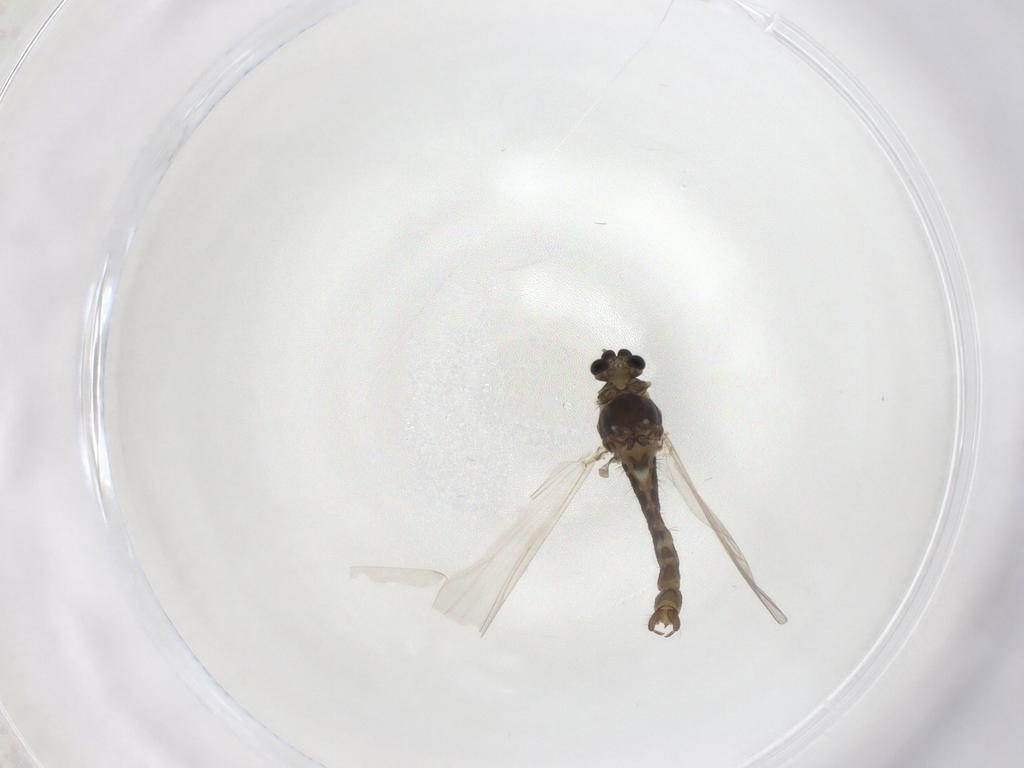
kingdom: Animalia
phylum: Arthropoda
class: Insecta
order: Diptera
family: Chironomidae
